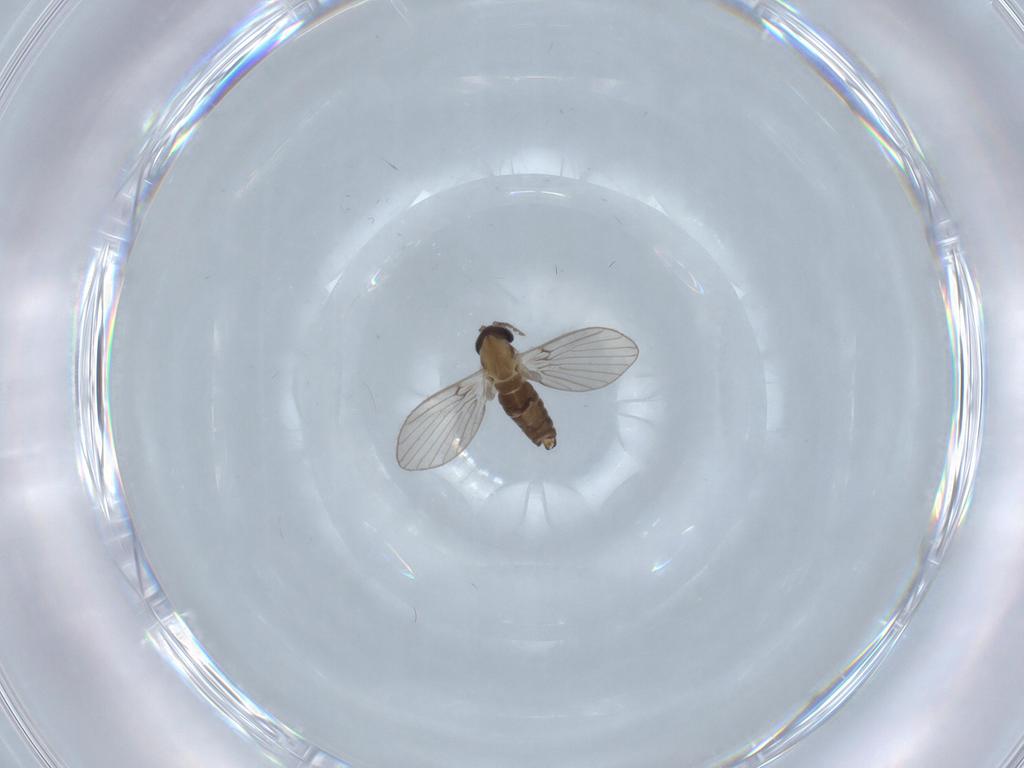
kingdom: Animalia
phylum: Arthropoda
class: Insecta
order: Diptera
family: Psychodidae
